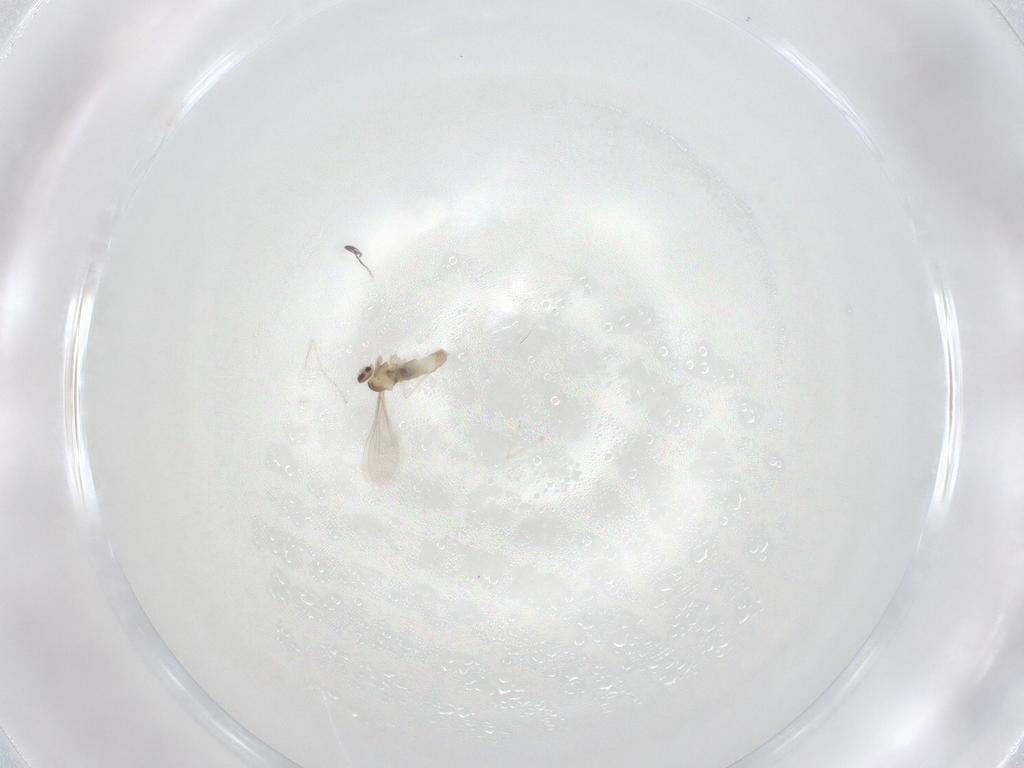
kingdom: Animalia
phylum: Arthropoda
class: Insecta
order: Diptera
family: Cecidomyiidae
